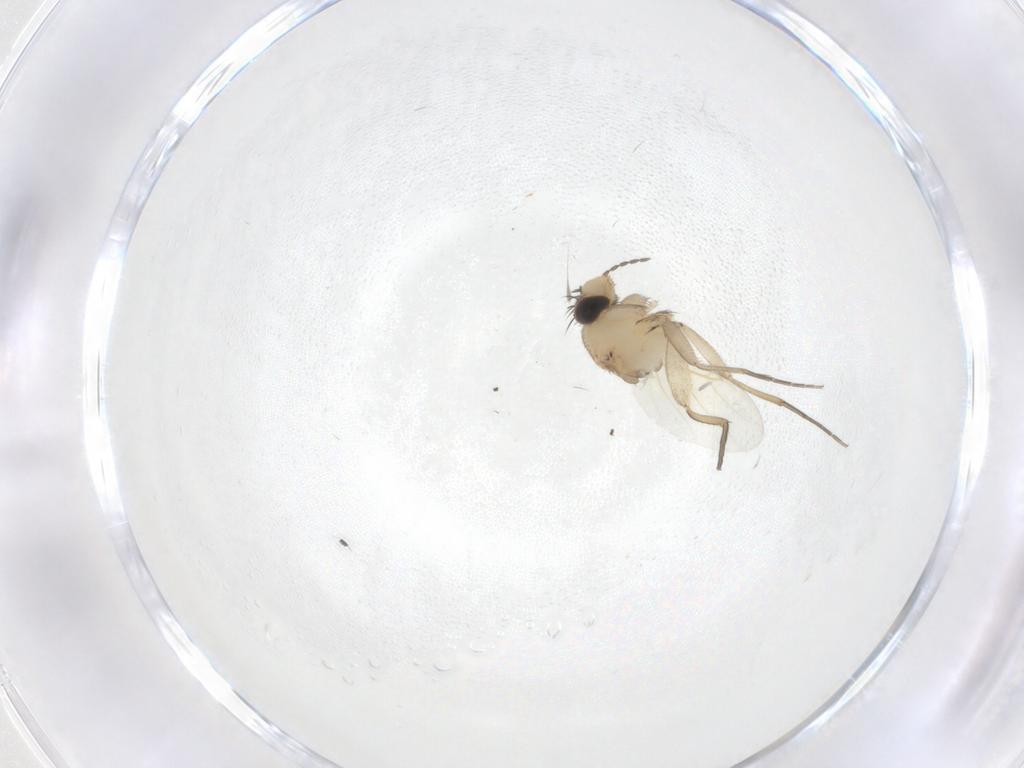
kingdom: Animalia
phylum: Arthropoda
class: Insecta
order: Diptera
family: Phoridae
